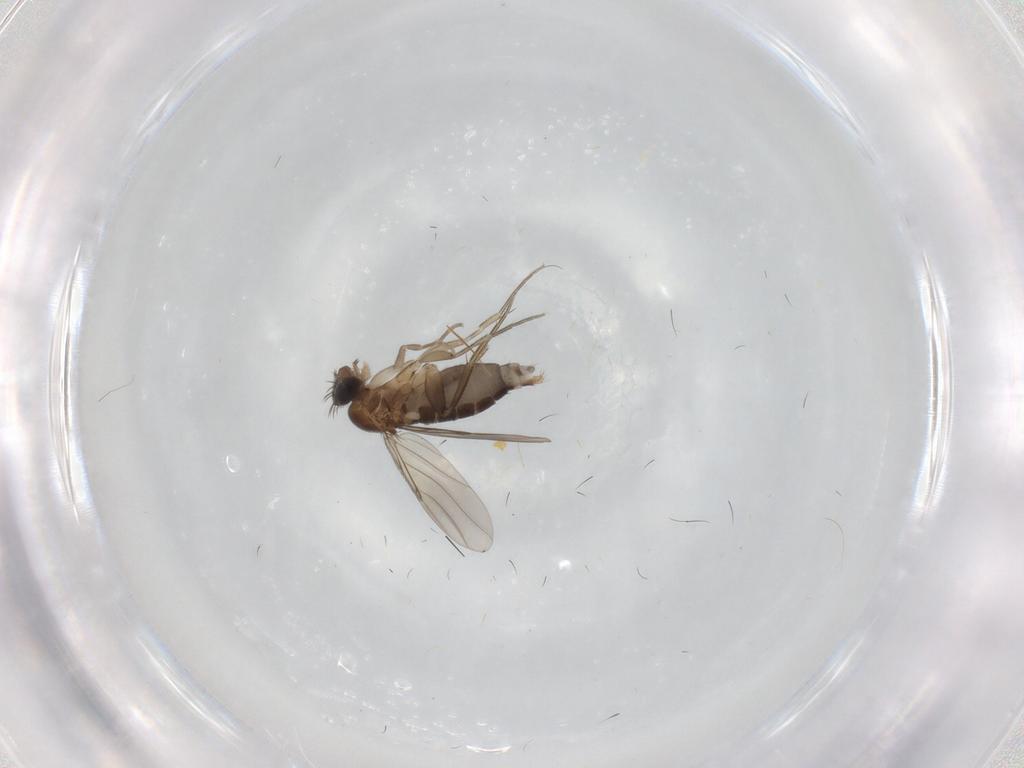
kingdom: Animalia
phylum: Arthropoda
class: Insecta
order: Diptera
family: Phoridae
